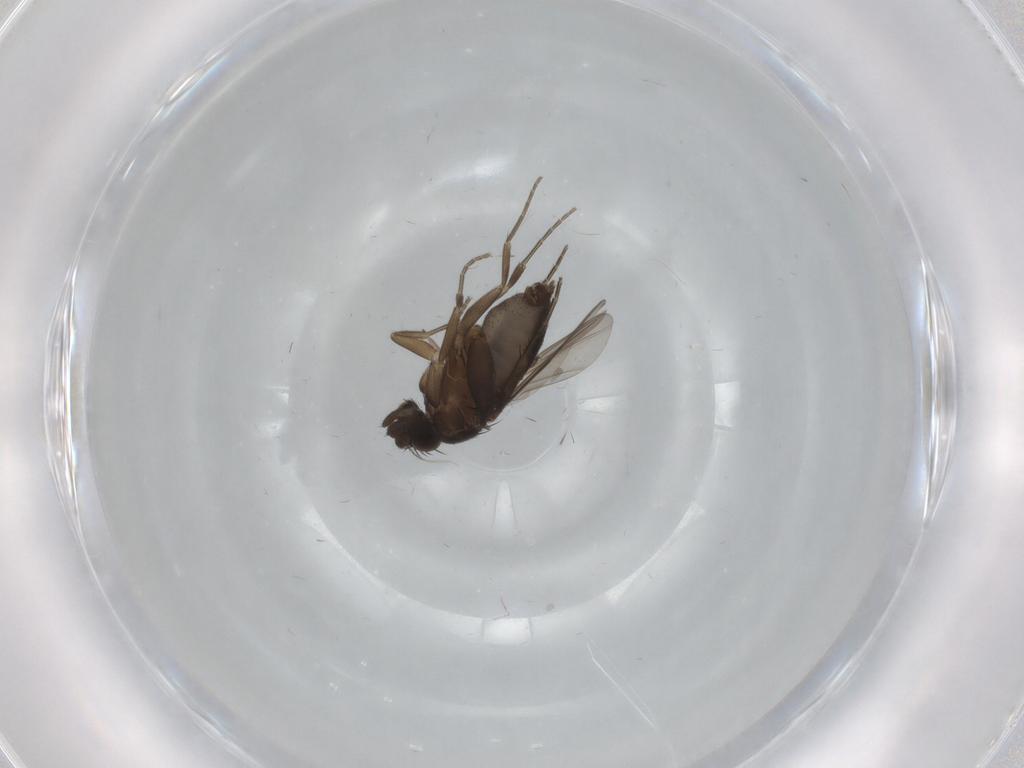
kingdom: Animalia
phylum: Arthropoda
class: Insecta
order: Diptera
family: Phoridae
